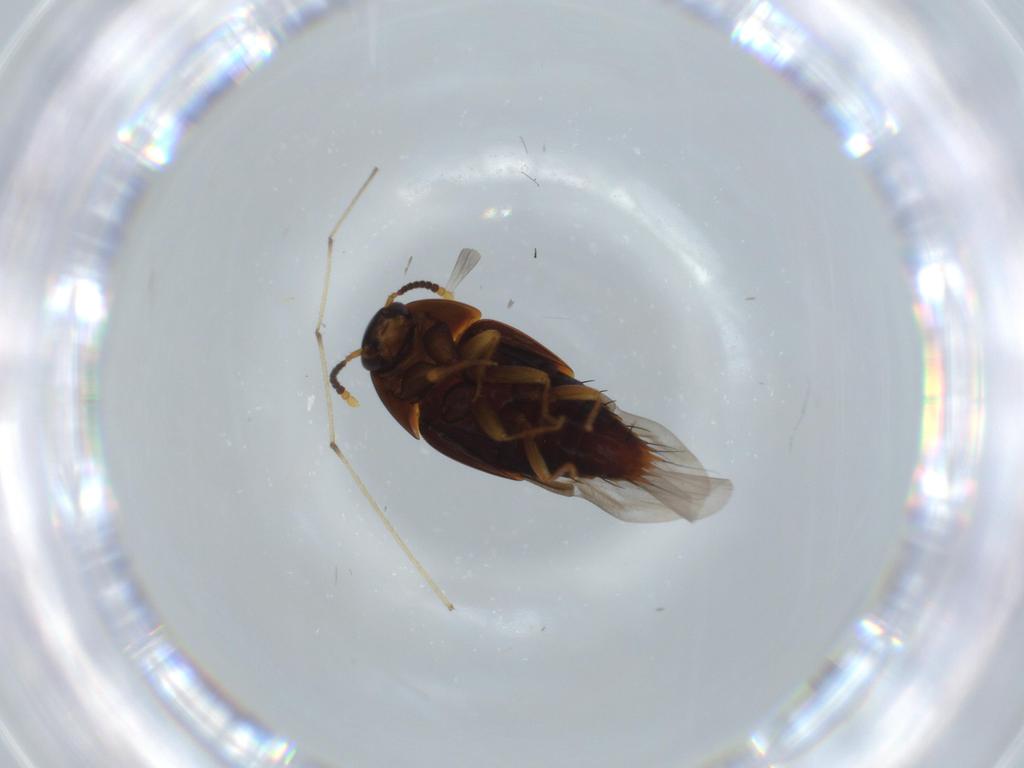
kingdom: Animalia
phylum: Arthropoda
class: Insecta
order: Coleoptera
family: Staphylinidae
